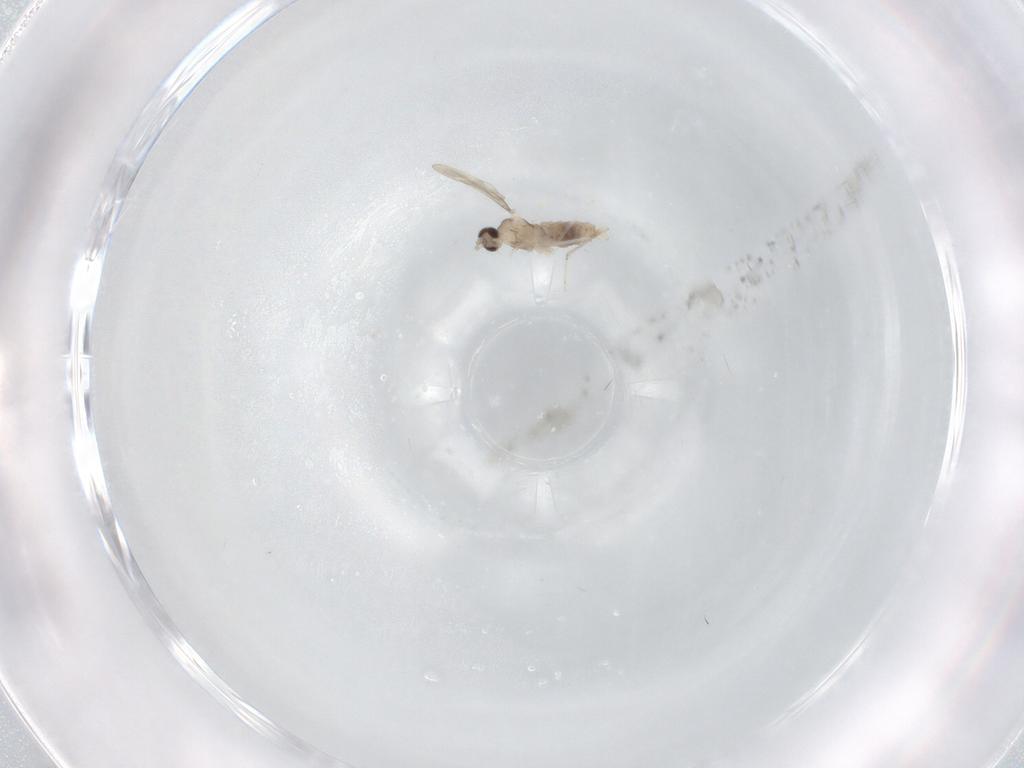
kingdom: Animalia
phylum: Arthropoda
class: Insecta
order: Diptera
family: Cecidomyiidae
